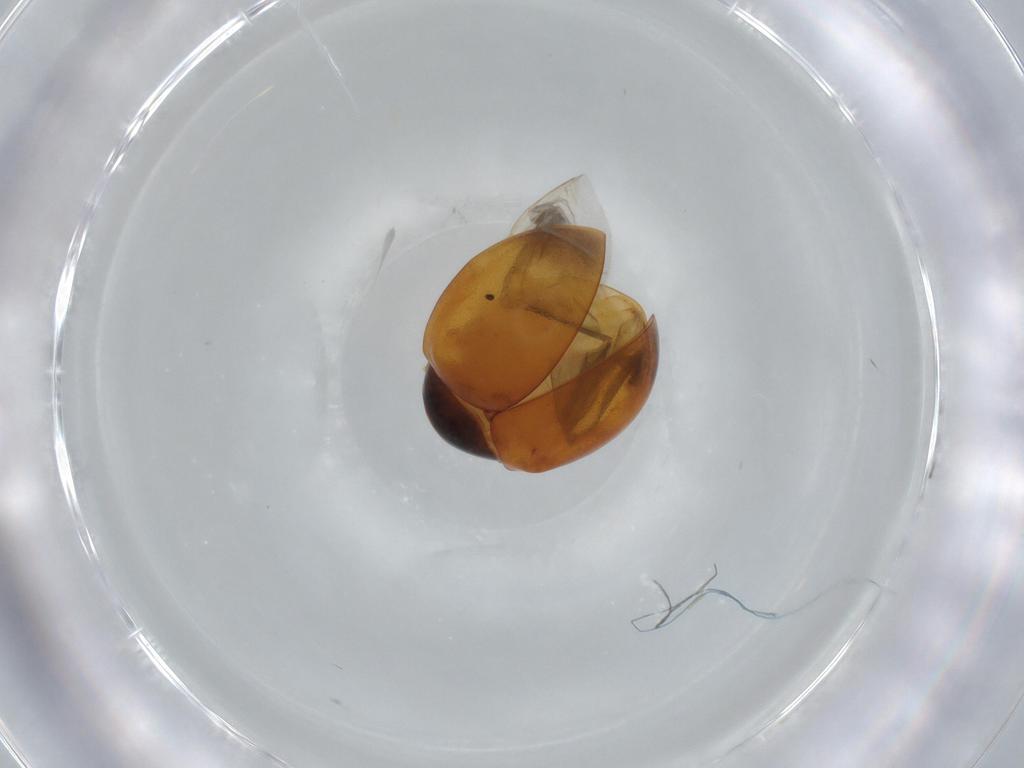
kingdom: Animalia
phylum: Arthropoda
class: Insecta
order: Coleoptera
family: Coccinellidae
